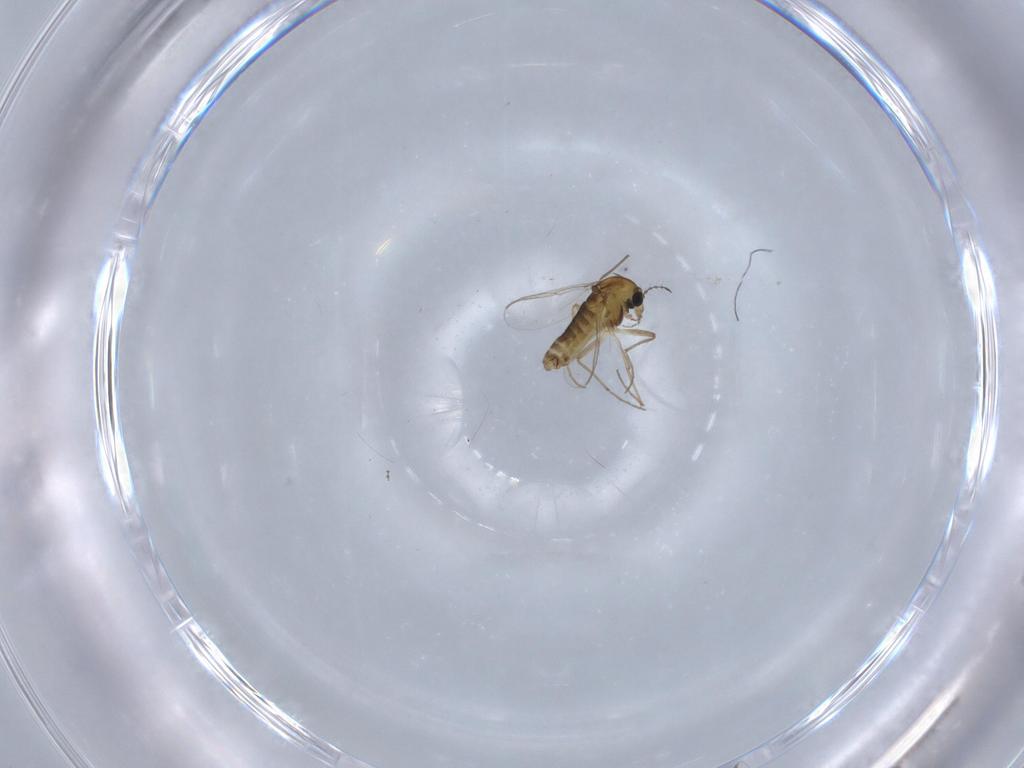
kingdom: Animalia
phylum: Arthropoda
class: Insecta
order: Diptera
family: Chironomidae
